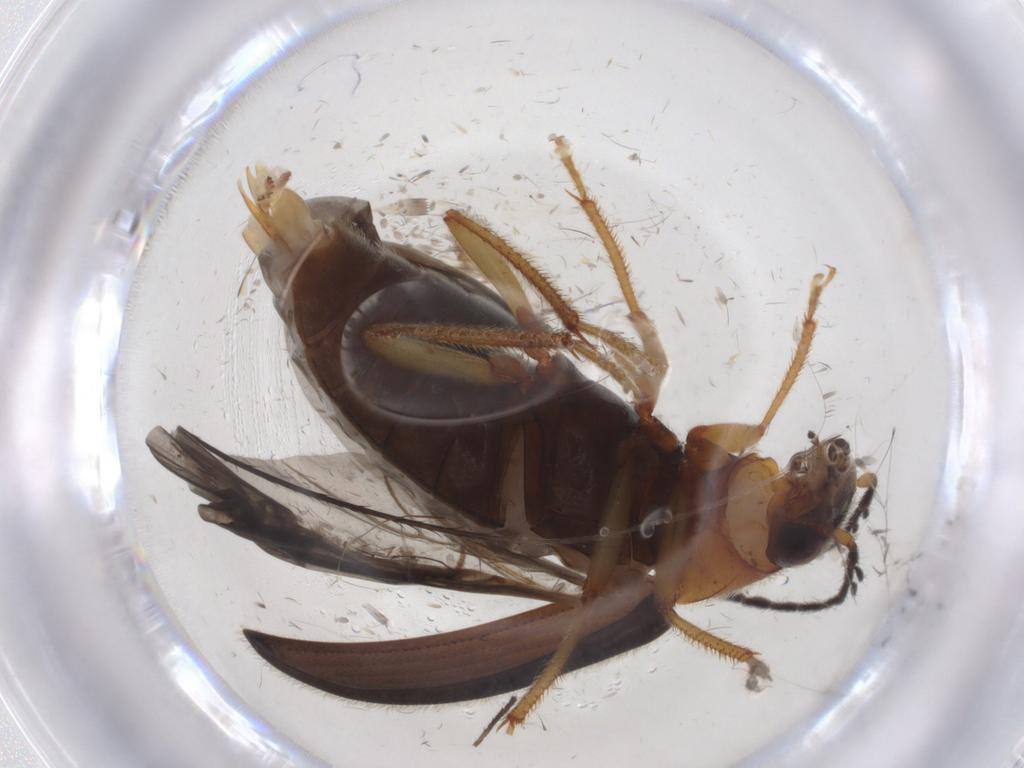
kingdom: Animalia
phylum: Arthropoda
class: Insecta
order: Coleoptera
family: Ptilodactylidae
